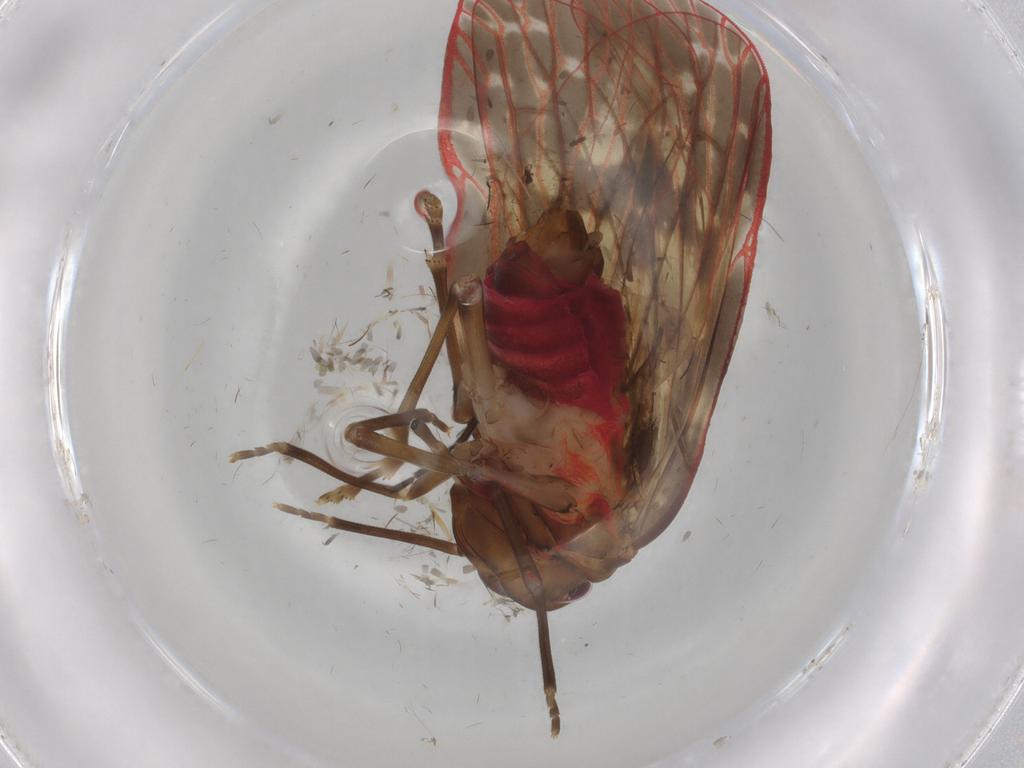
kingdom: Animalia
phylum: Arthropoda
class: Insecta
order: Hemiptera
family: Achilidae
